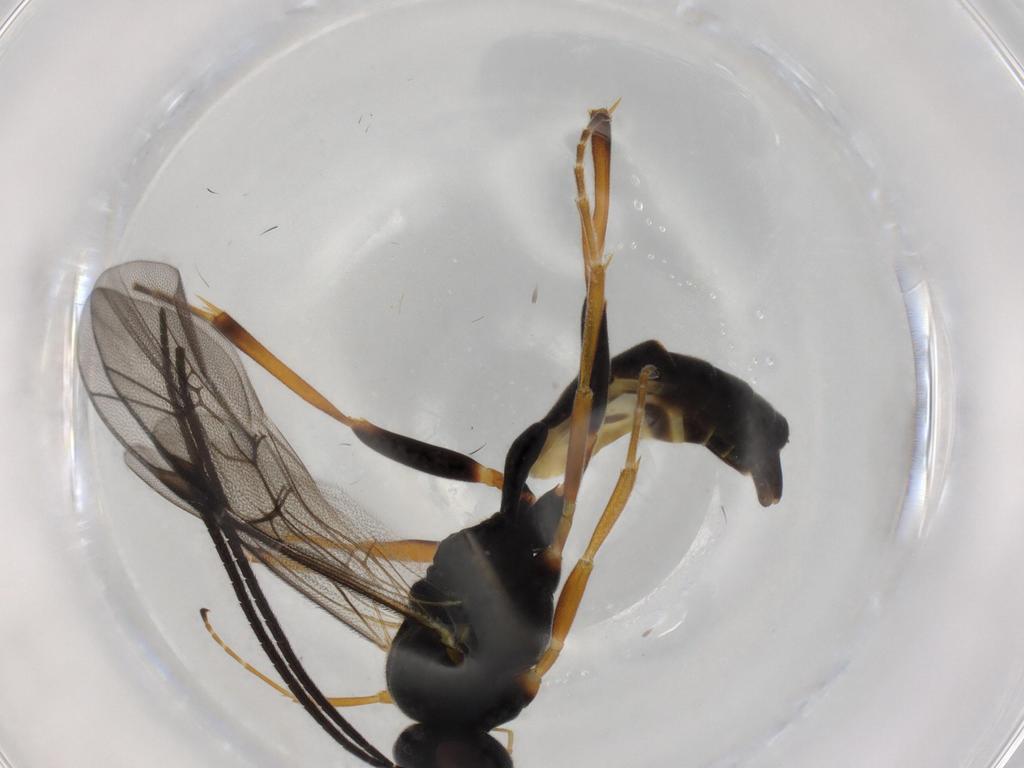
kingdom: Animalia
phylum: Arthropoda
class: Insecta
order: Hymenoptera
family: Ichneumonidae
